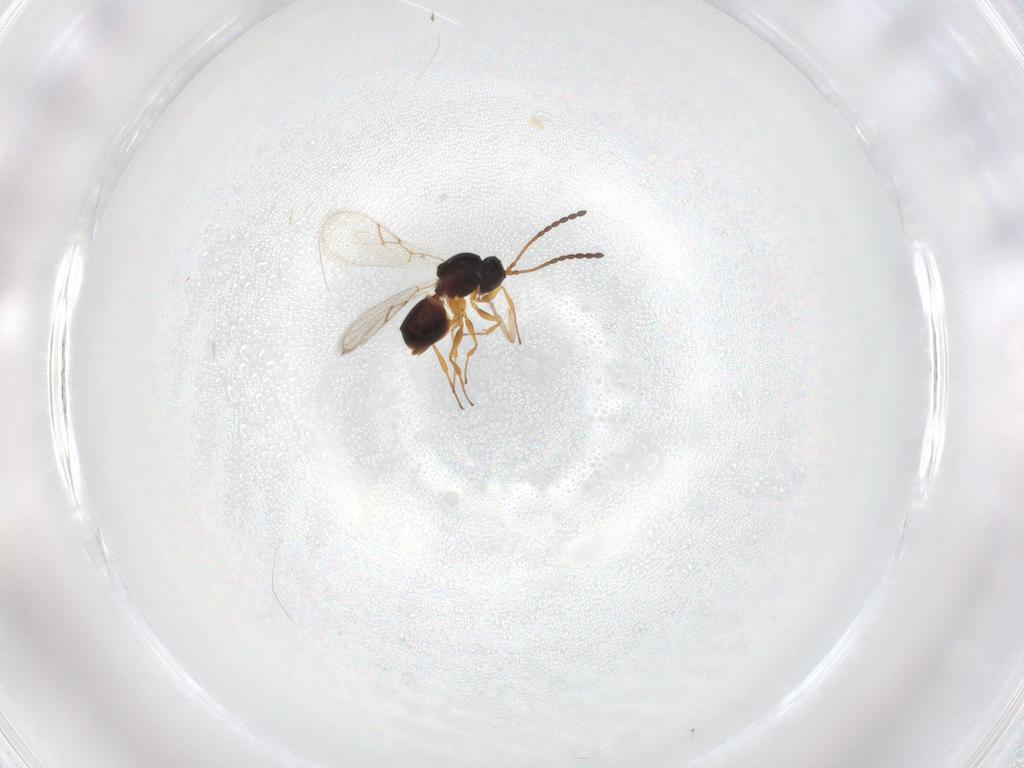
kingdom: Animalia
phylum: Arthropoda
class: Insecta
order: Hymenoptera
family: Figitidae
